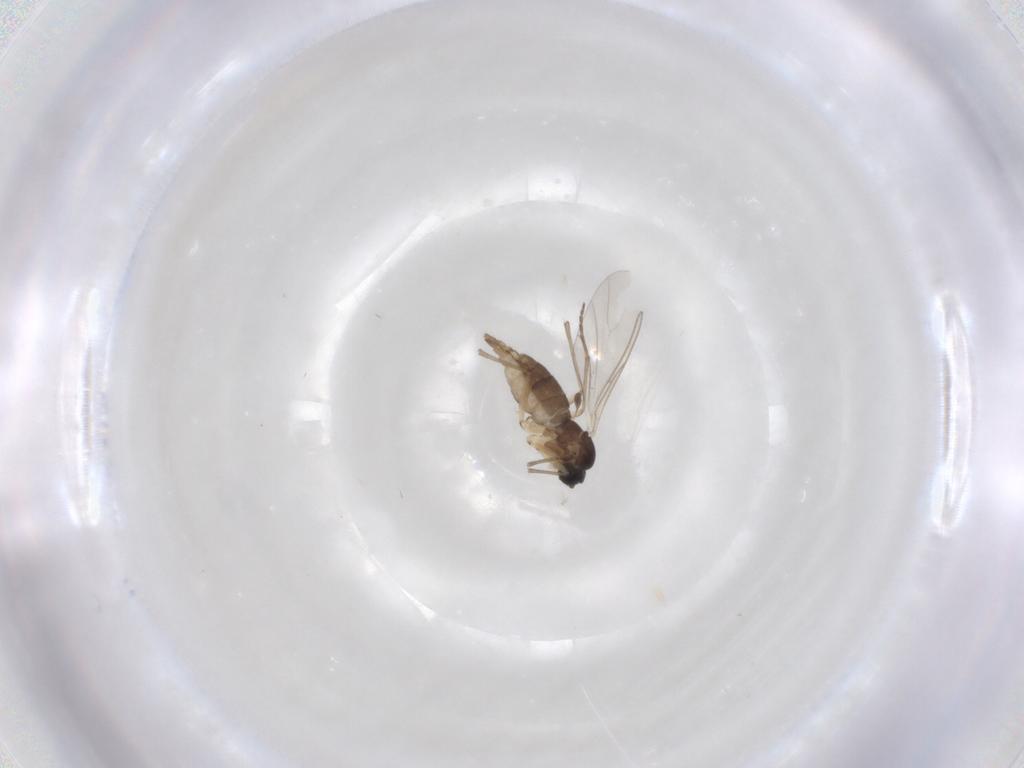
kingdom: Animalia
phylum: Arthropoda
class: Insecta
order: Diptera
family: Sciaridae
